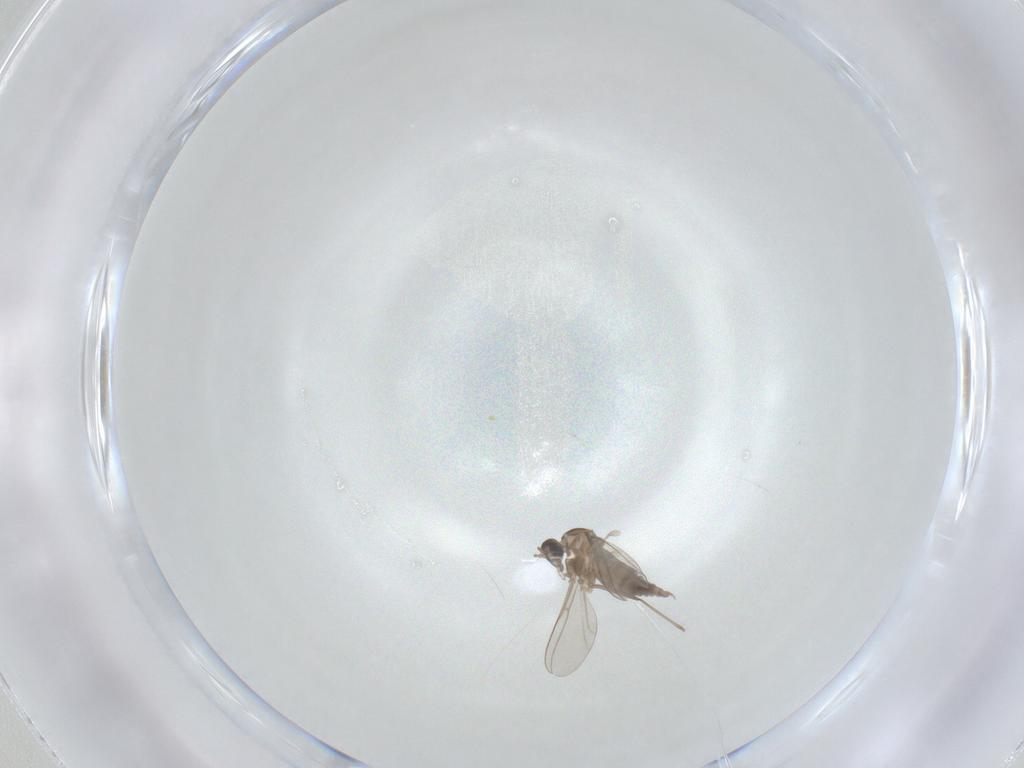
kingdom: Animalia
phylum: Arthropoda
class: Insecta
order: Diptera
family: Cecidomyiidae
